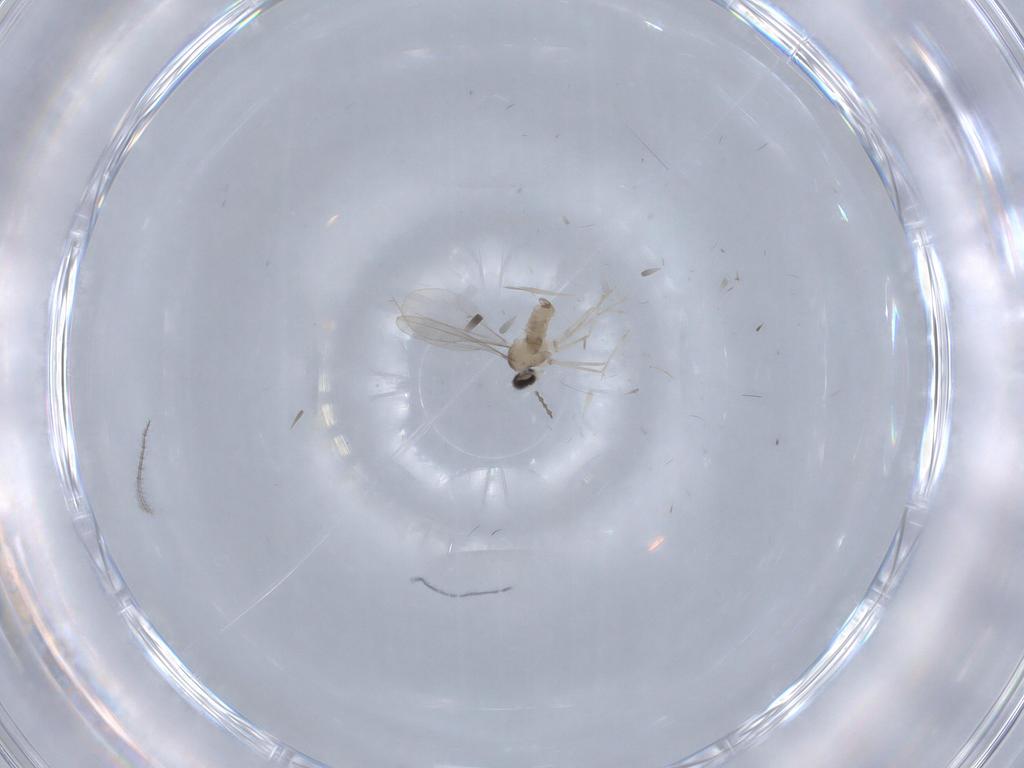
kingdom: Animalia
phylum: Arthropoda
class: Insecta
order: Diptera
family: Cecidomyiidae
